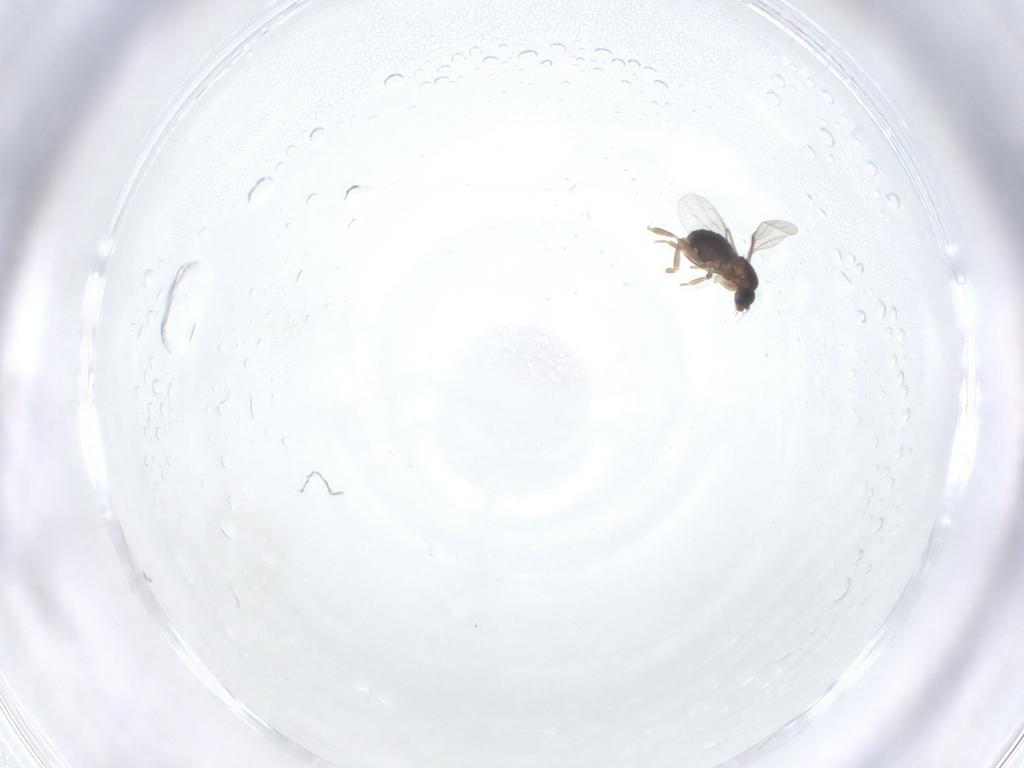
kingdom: Animalia
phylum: Arthropoda
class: Insecta
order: Diptera
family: Phoridae
